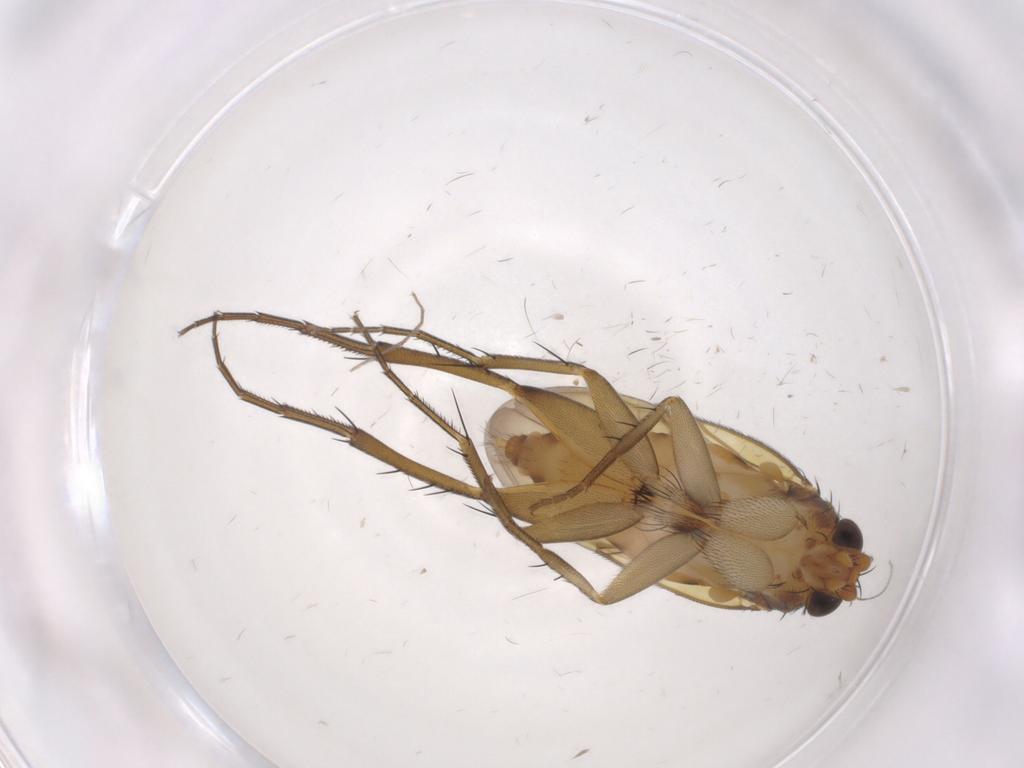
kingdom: Animalia
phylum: Arthropoda
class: Insecta
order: Diptera
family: Phoridae
